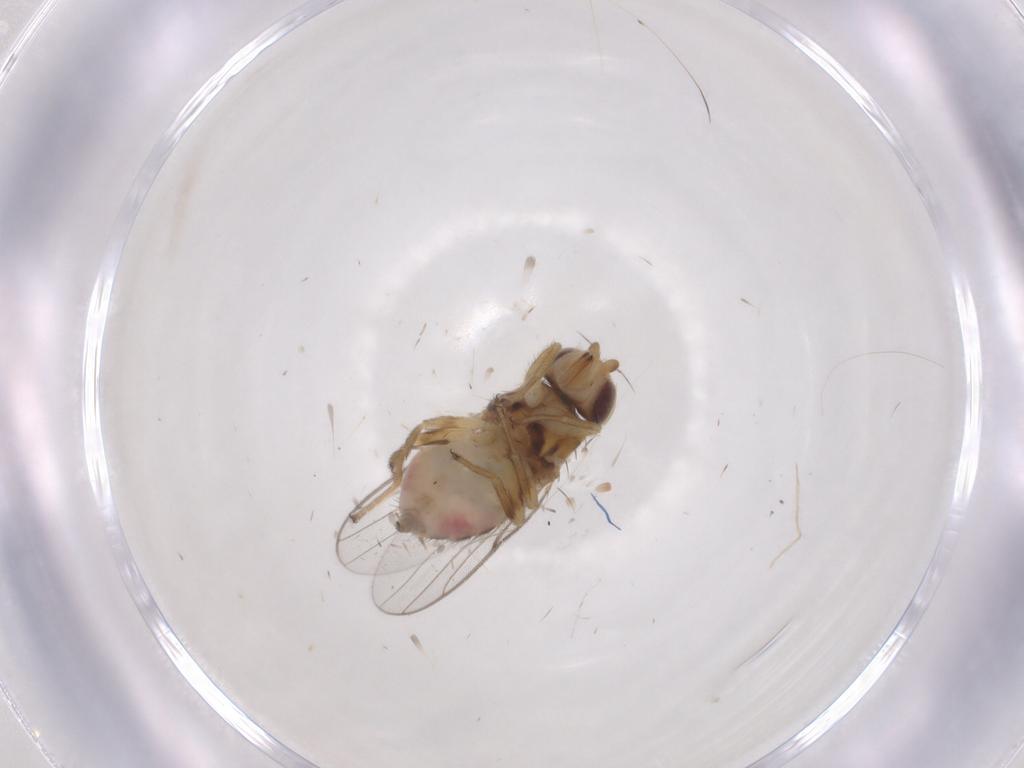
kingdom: Animalia
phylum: Arthropoda
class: Insecta
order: Diptera
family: Chloropidae
